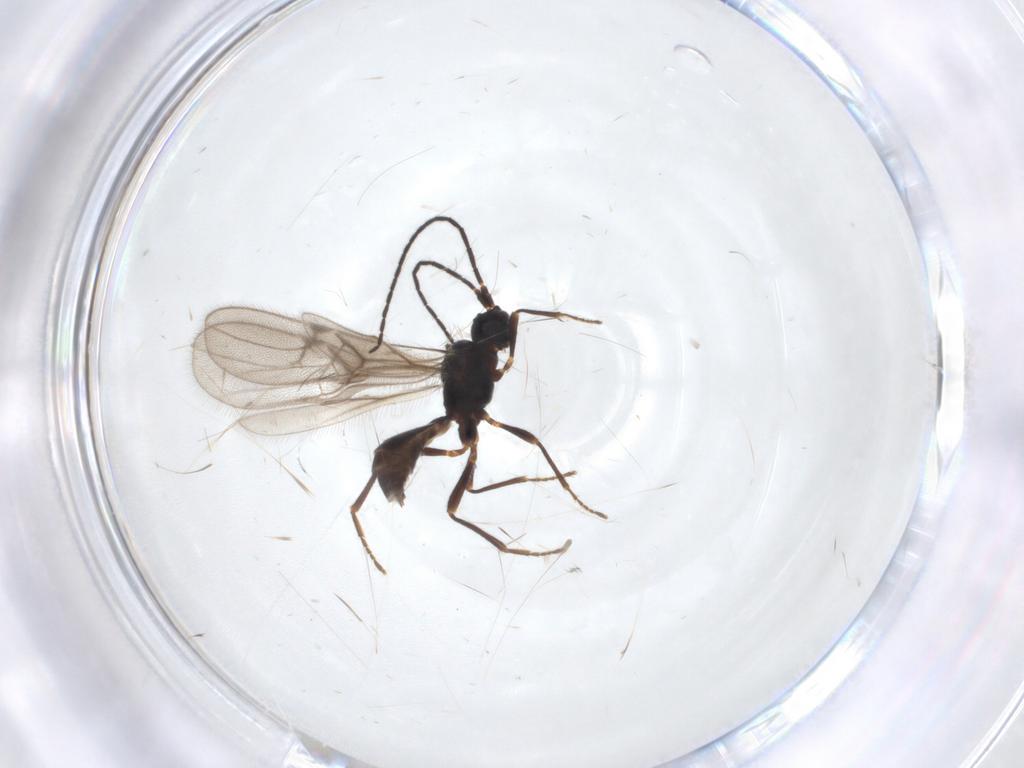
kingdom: Animalia
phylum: Arthropoda
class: Insecta
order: Hymenoptera
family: Braconidae
